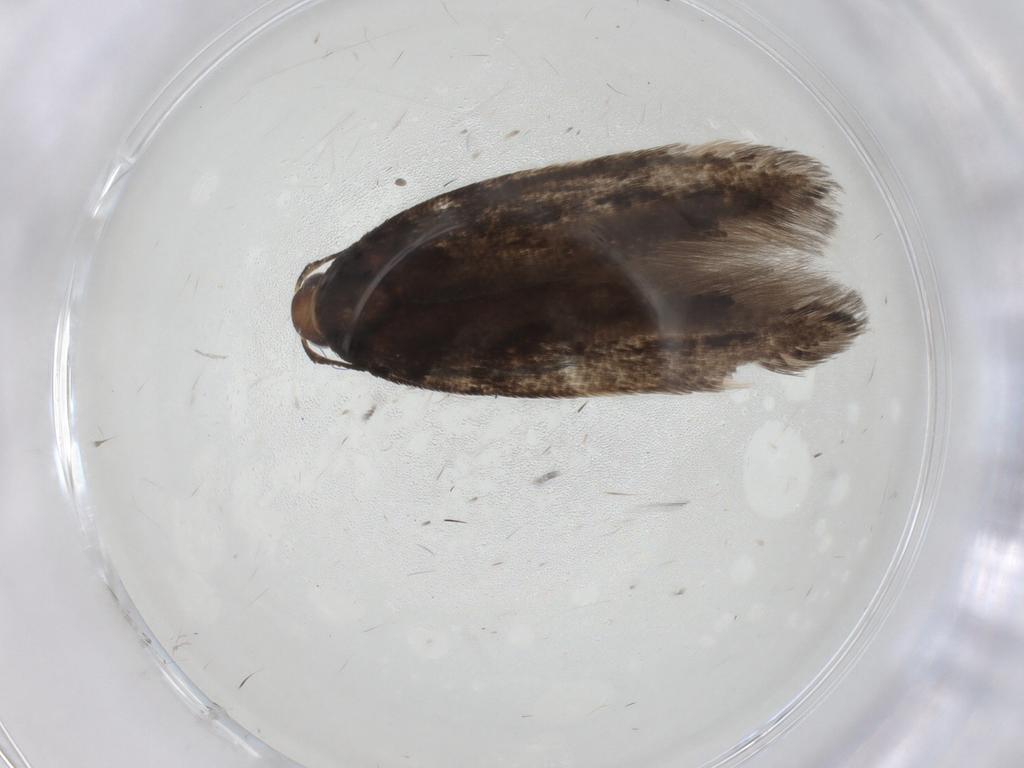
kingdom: Animalia
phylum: Arthropoda
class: Insecta
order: Lepidoptera
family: Gelechiidae
